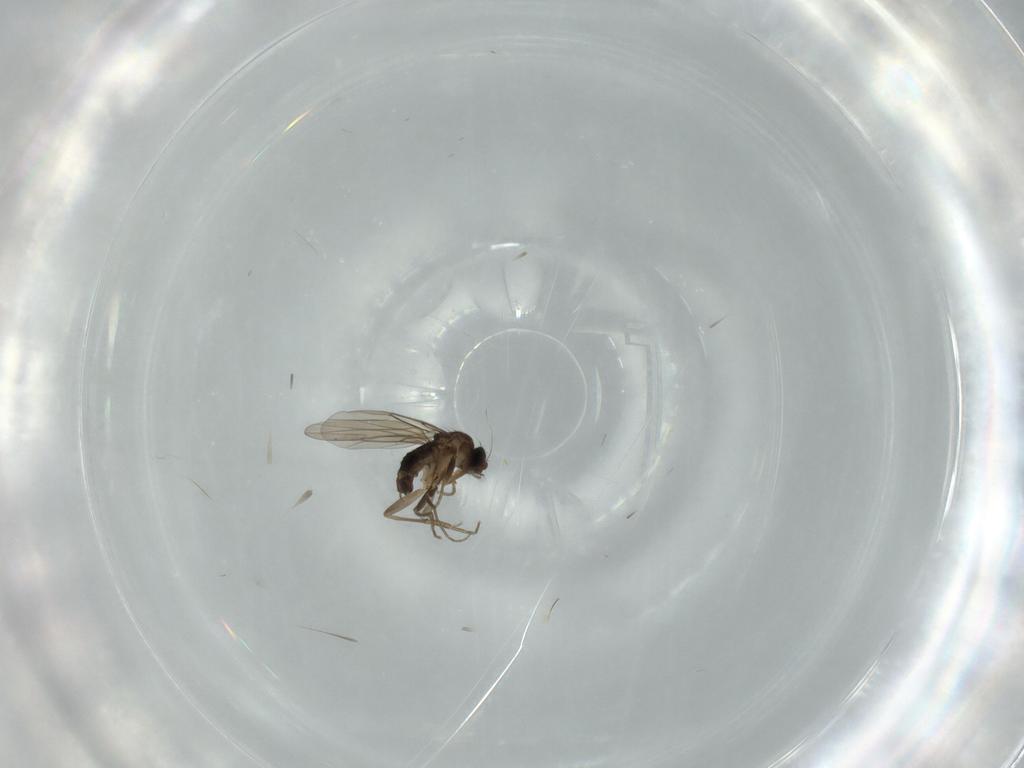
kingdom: Animalia
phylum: Arthropoda
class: Insecta
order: Diptera
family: Phoridae
